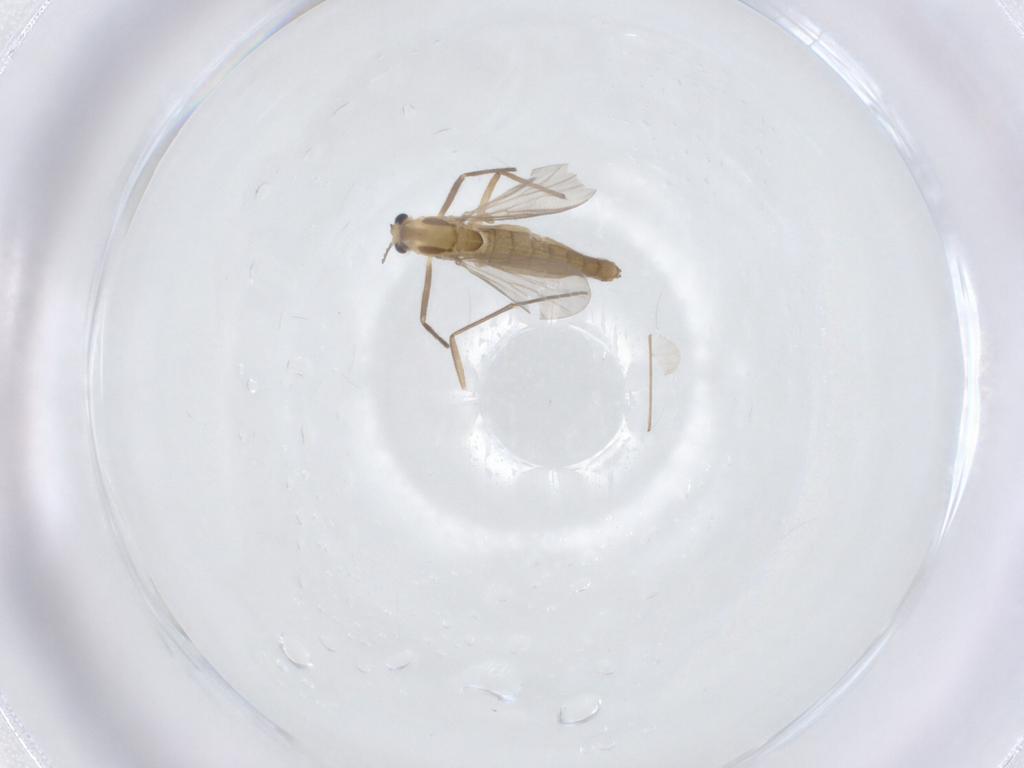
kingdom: Animalia
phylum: Arthropoda
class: Insecta
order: Diptera
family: Chironomidae
